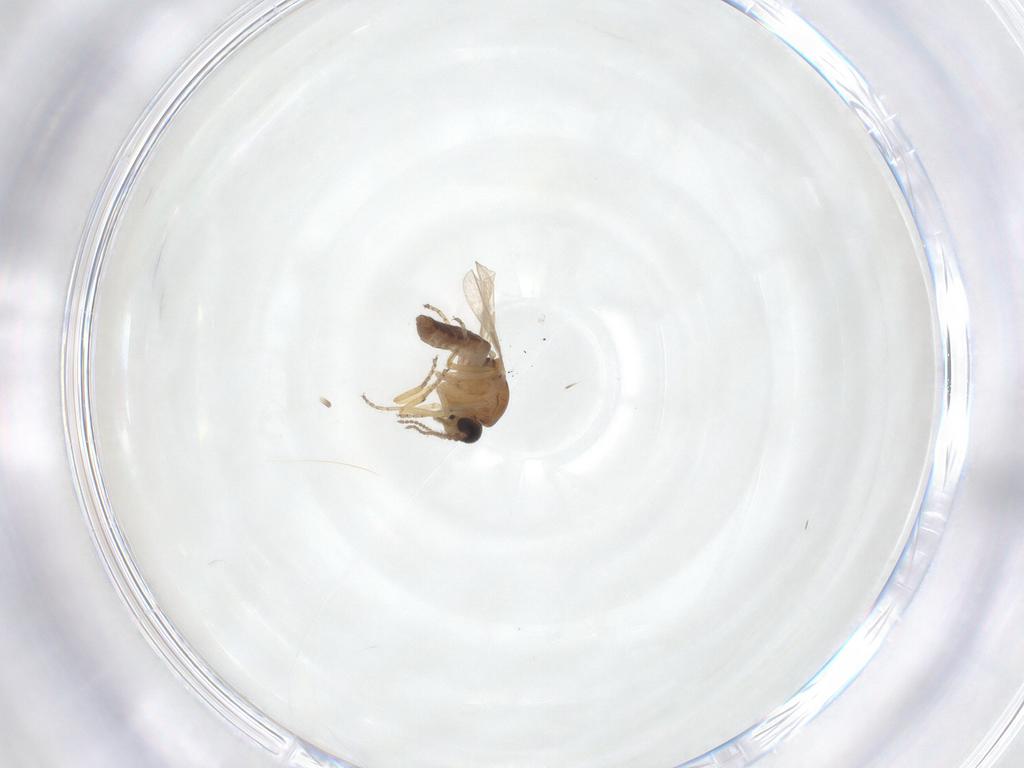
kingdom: Animalia
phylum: Arthropoda
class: Insecta
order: Diptera
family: Ceratopogonidae
